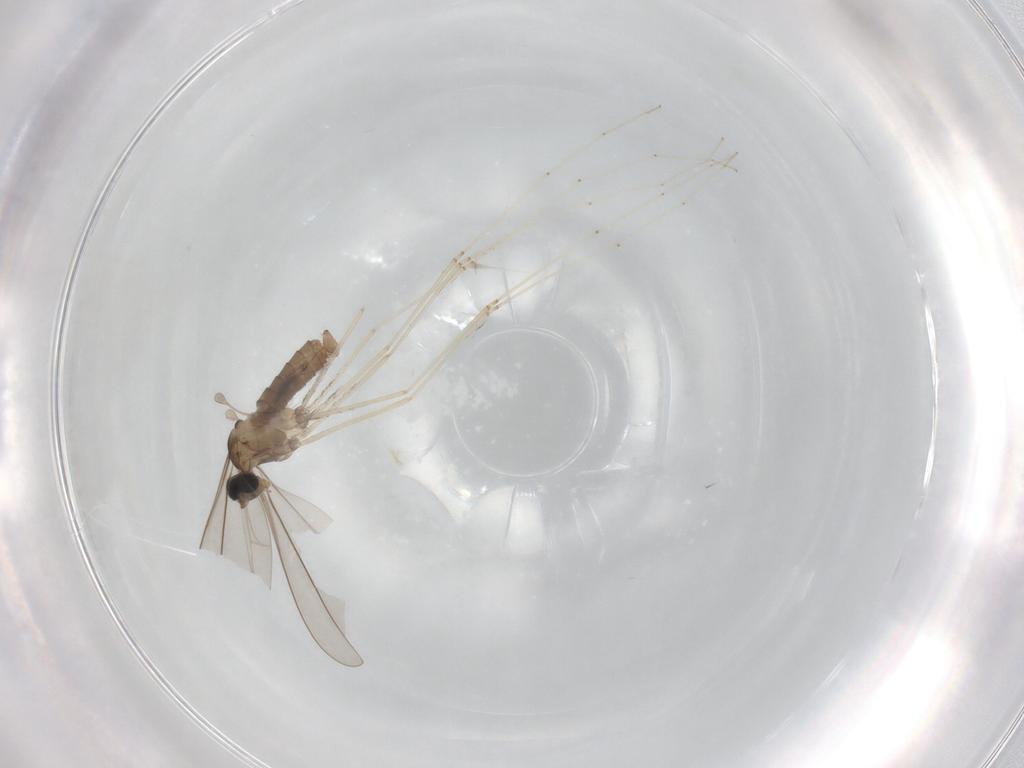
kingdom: Animalia
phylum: Arthropoda
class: Insecta
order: Diptera
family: Cecidomyiidae
